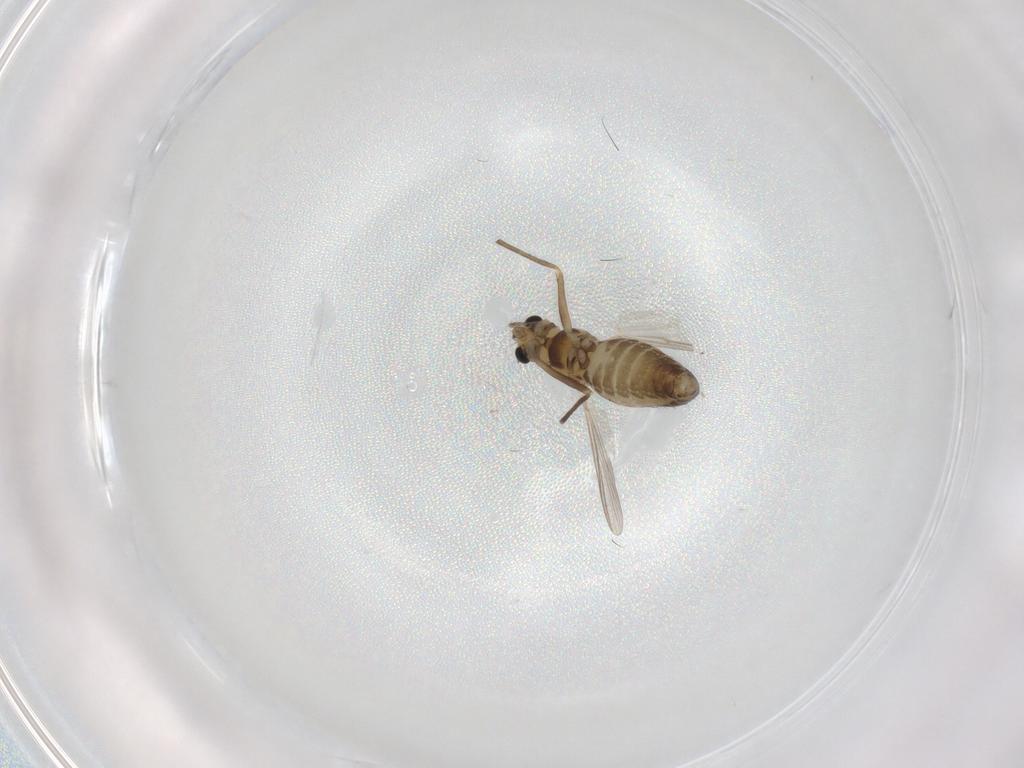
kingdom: Animalia
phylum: Arthropoda
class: Insecta
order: Diptera
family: Chironomidae
